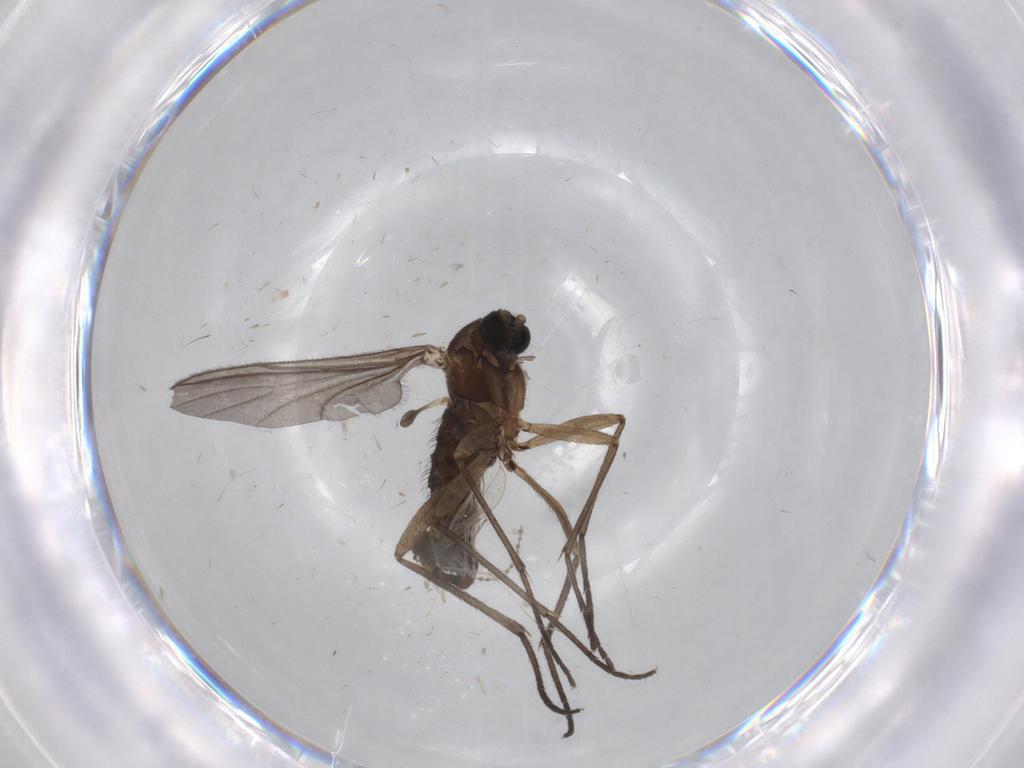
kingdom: Animalia
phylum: Arthropoda
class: Insecta
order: Diptera
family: Sciaridae
